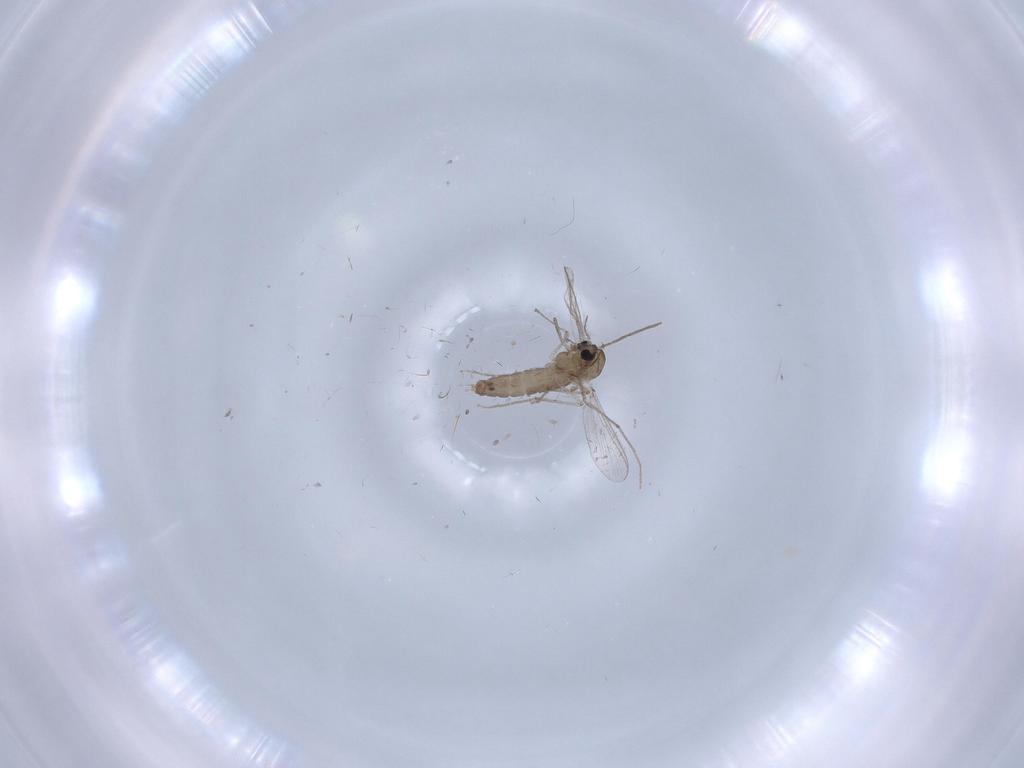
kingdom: Animalia
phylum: Arthropoda
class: Insecta
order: Diptera
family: Chironomidae
